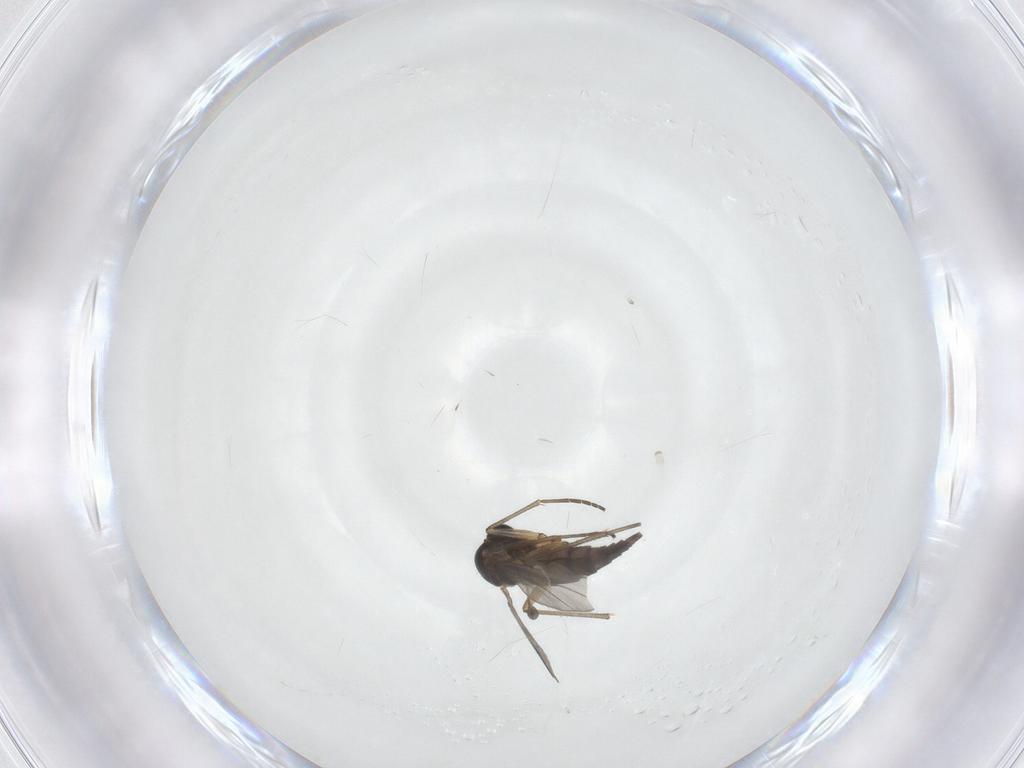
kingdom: Animalia
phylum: Arthropoda
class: Insecta
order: Diptera
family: Sciaridae
